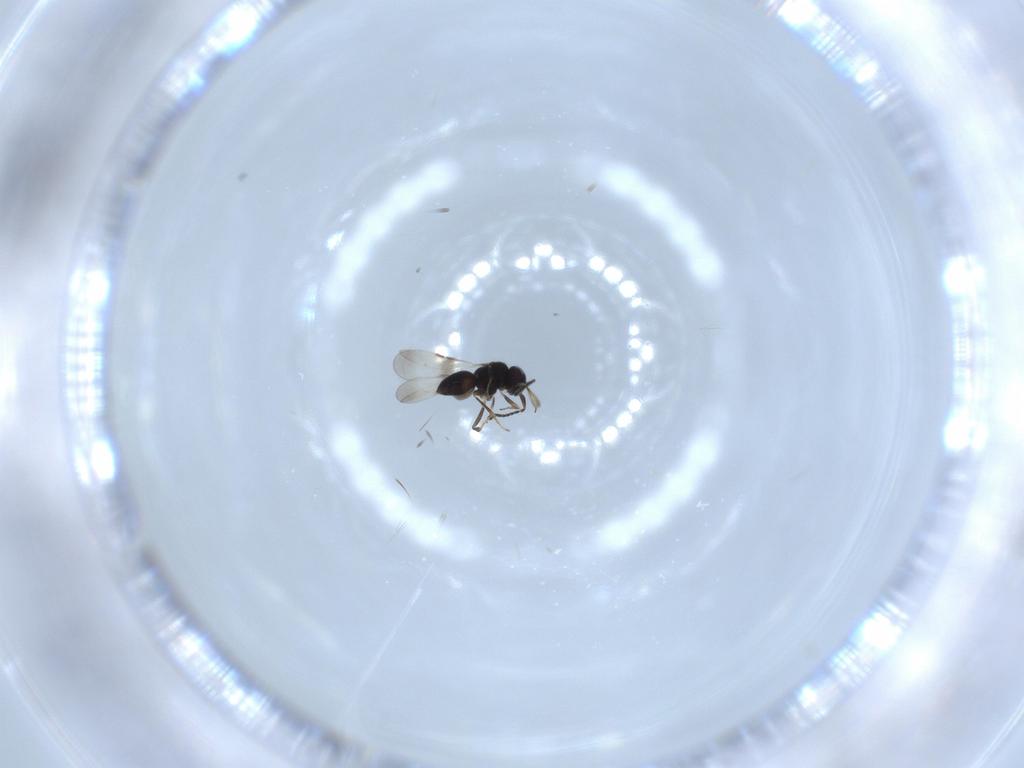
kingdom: Animalia
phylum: Arthropoda
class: Insecta
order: Hymenoptera
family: Ceraphronidae
